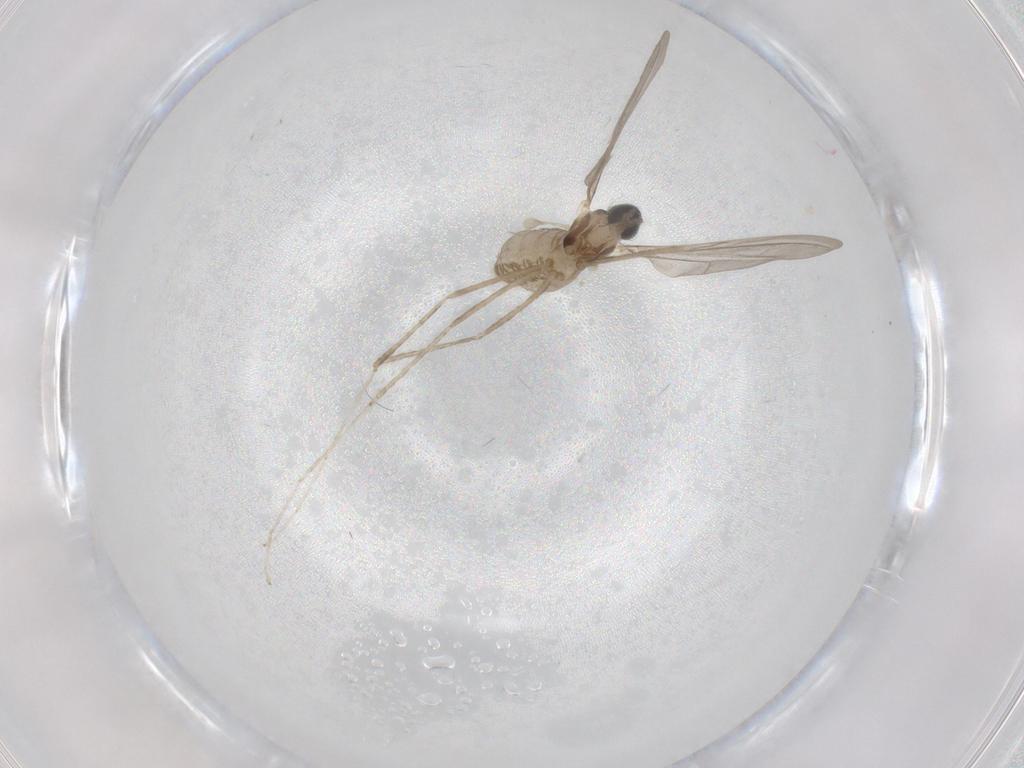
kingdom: Animalia
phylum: Arthropoda
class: Insecta
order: Diptera
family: Cecidomyiidae
